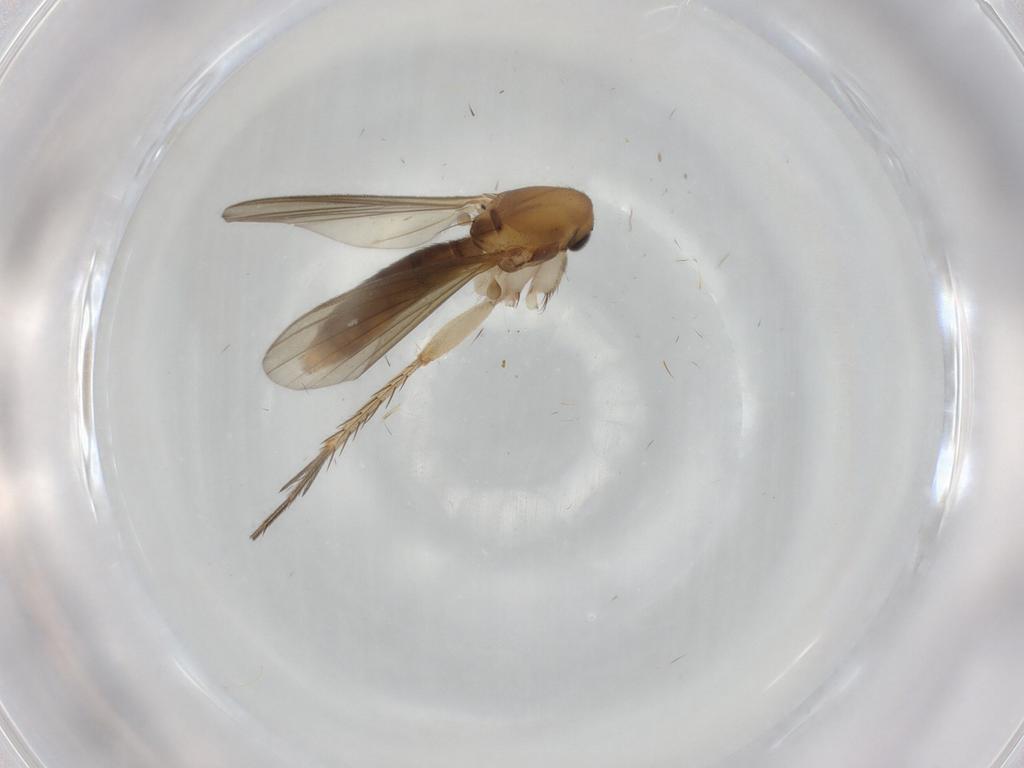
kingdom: Animalia
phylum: Arthropoda
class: Insecta
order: Diptera
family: Mycetophilidae
